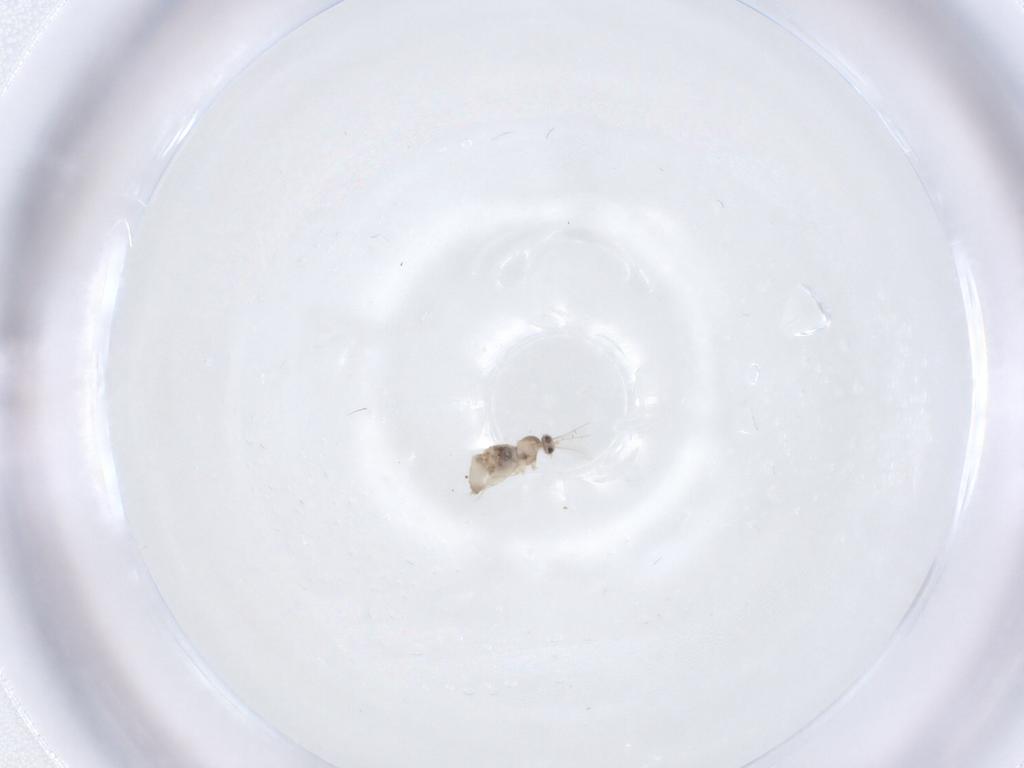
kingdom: Animalia
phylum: Arthropoda
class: Insecta
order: Diptera
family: Cecidomyiidae
